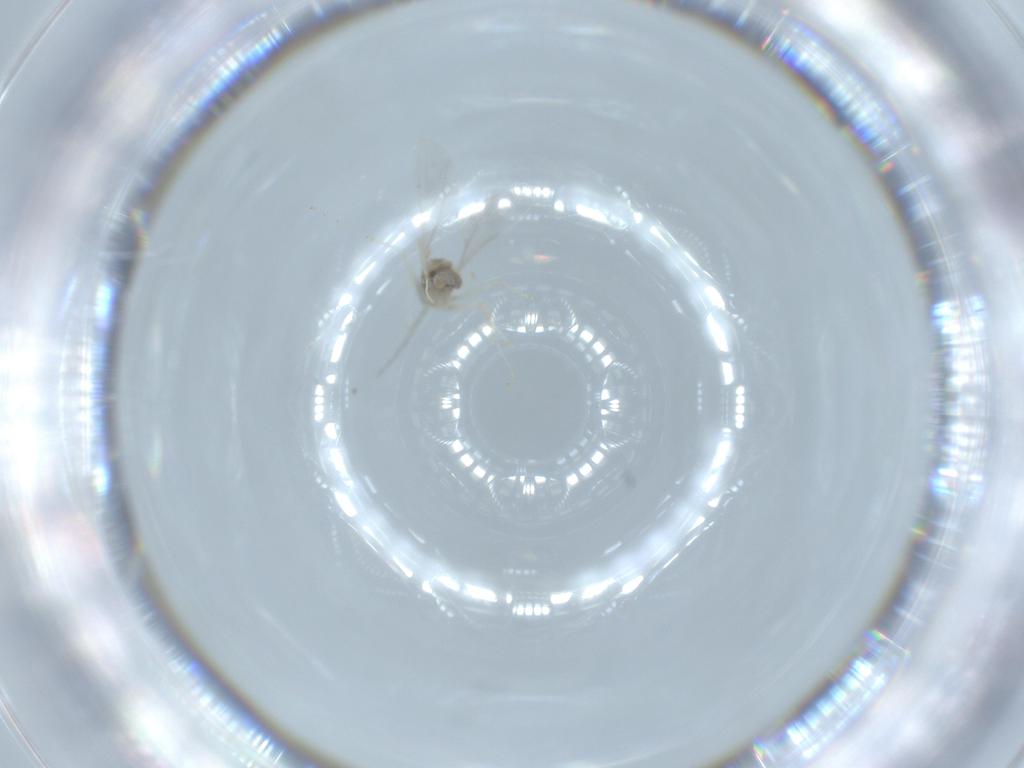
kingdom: Animalia
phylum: Arthropoda
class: Insecta
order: Diptera
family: Cecidomyiidae
